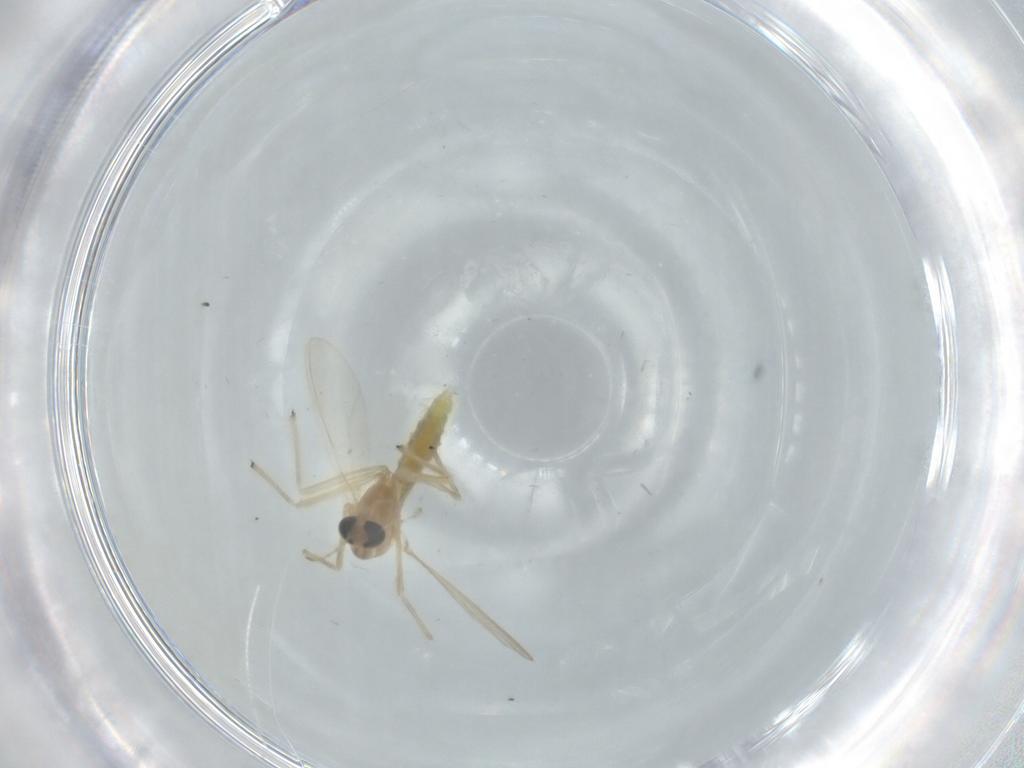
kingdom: Animalia
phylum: Arthropoda
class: Insecta
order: Diptera
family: Chironomidae
